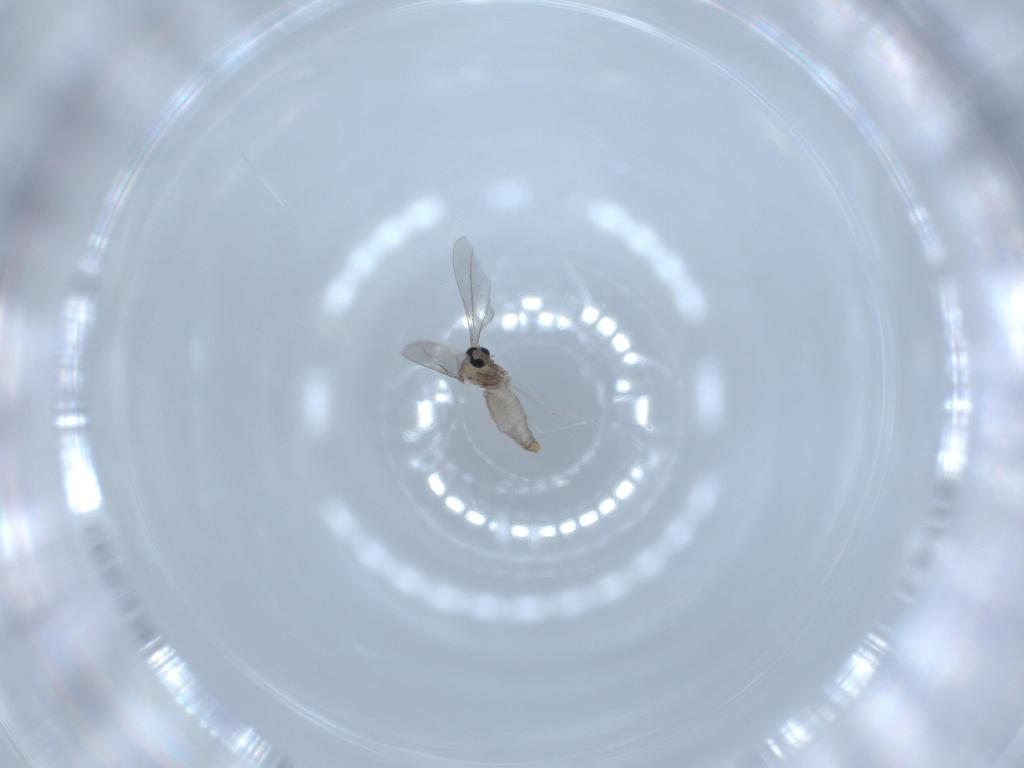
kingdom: Animalia
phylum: Arthropoda
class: Insecta
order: Diptera
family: Cecidomyiidae
